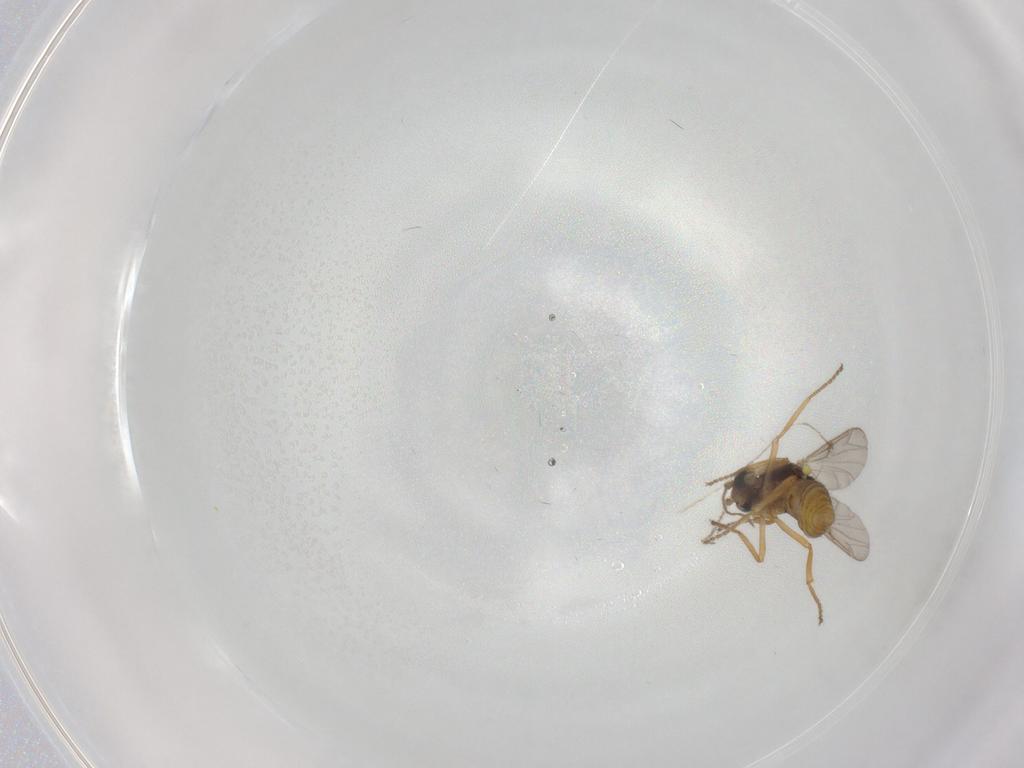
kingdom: Animalia
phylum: Arthropoda
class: Insecta
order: Diptera
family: Ceratopogonidae
